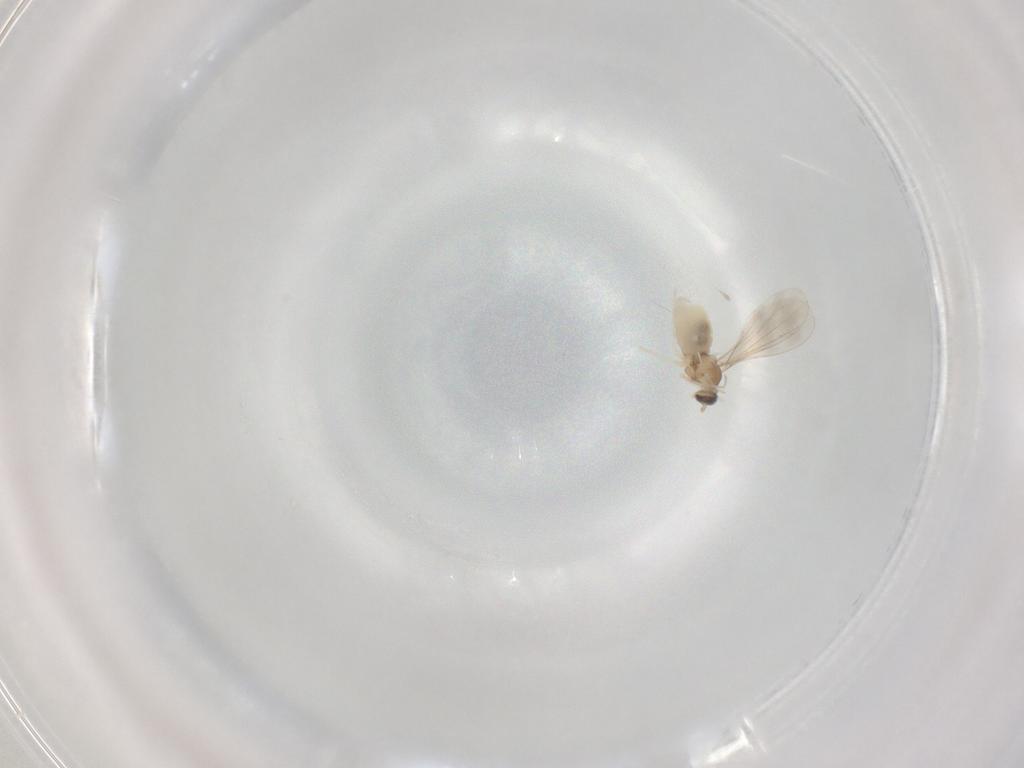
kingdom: Animalia
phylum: Arthropoda
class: Insecta
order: Diptera
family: Cecidomyiidae
